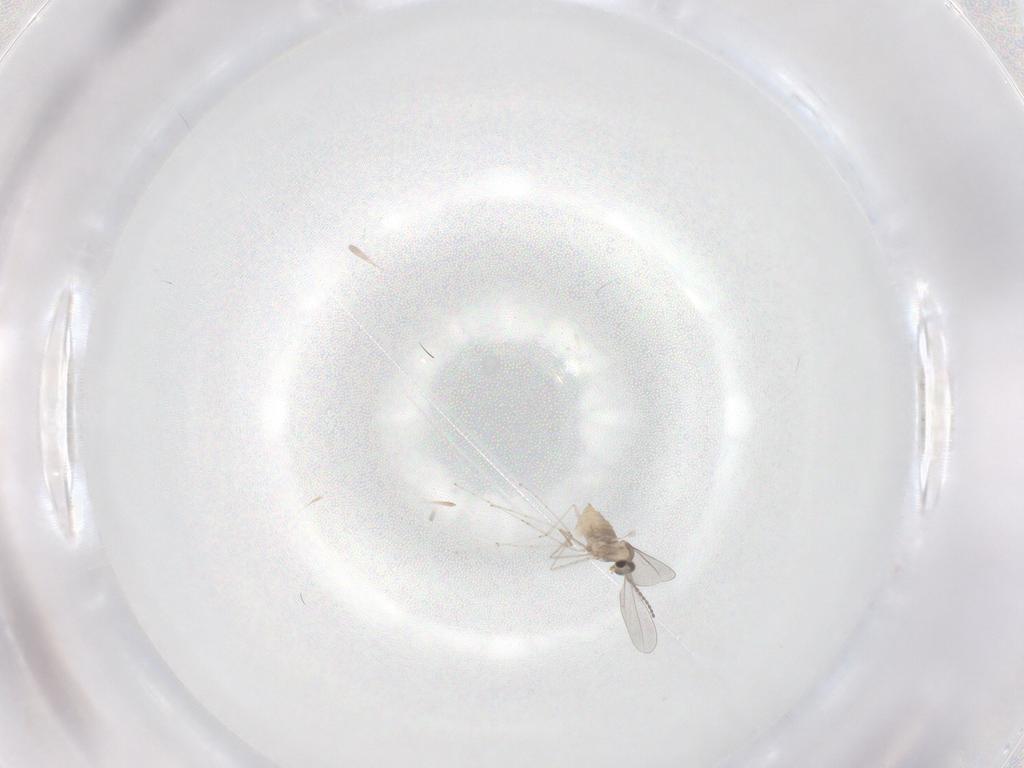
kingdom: Animalia
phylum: Arthropoda
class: Insecta
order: Diptera
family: Cecidomyiidae
